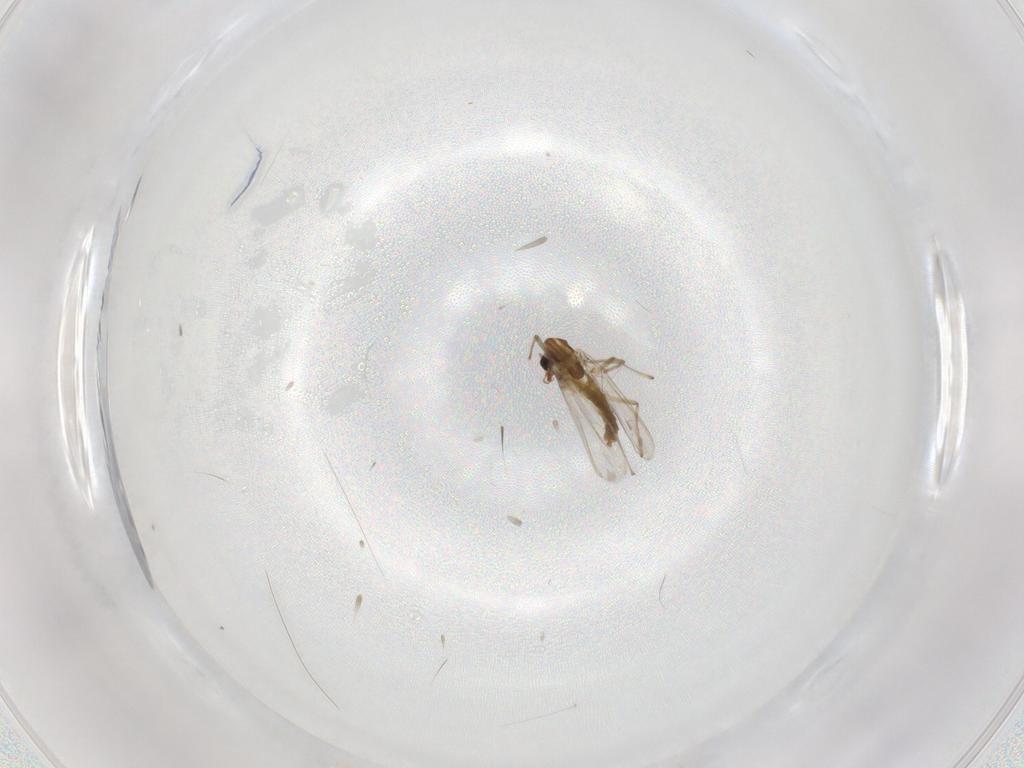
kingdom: Animalia
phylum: Arthropoda
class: Insecta
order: Diptera
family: Chironomidae
